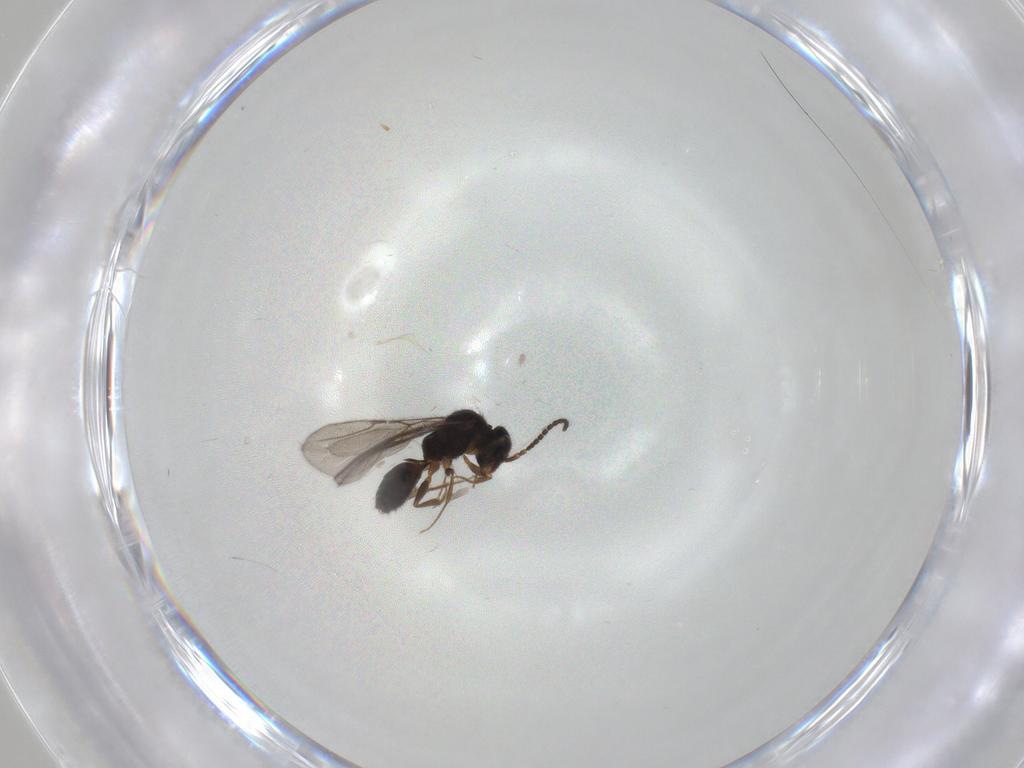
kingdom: Animalia
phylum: Arthropoda
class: Insecta
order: Hymenoptera
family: Bethylidae
